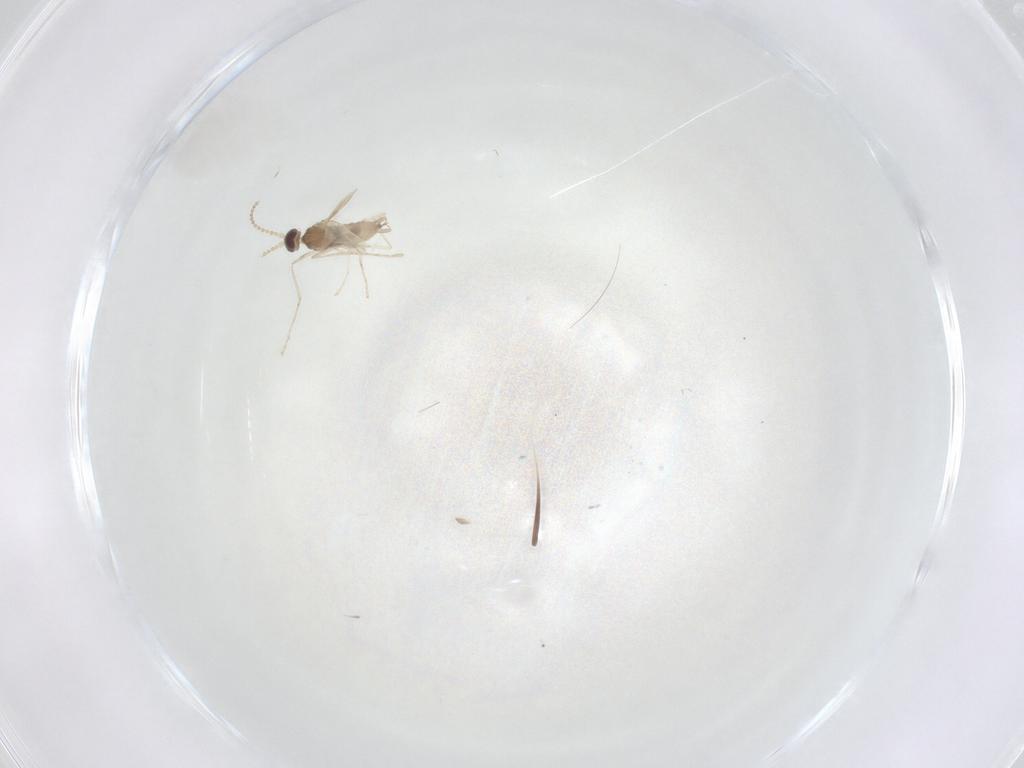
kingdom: Animalia
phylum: Arthropoda
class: Insecta
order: Diptera
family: Cecidomyiidae
